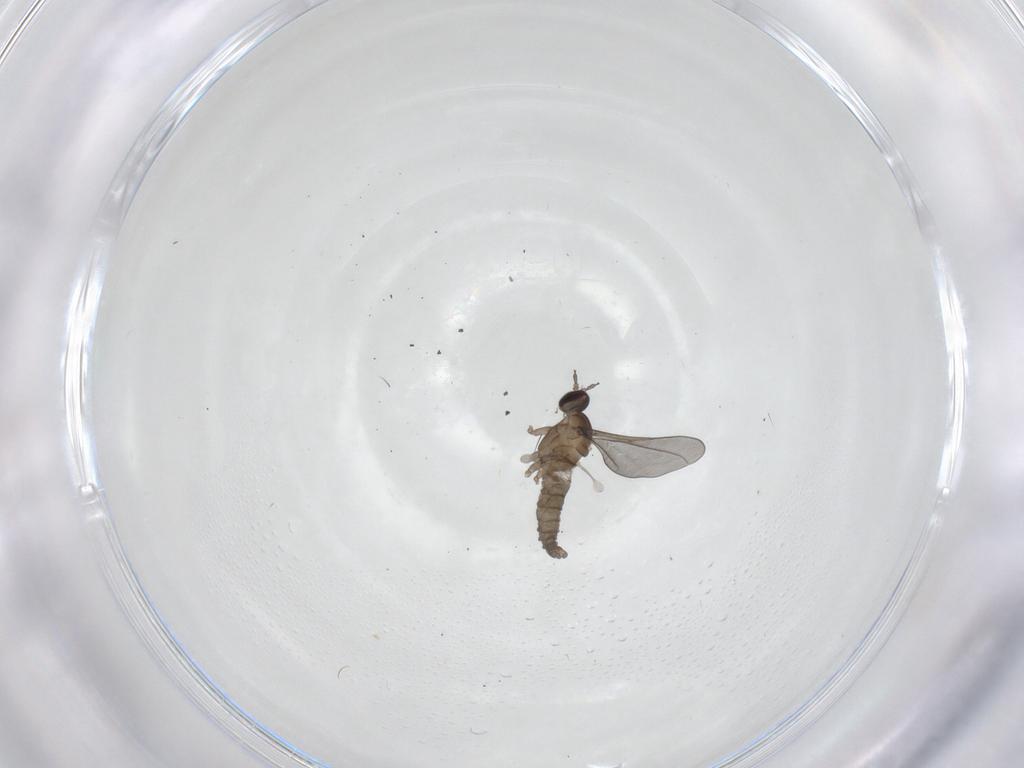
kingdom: Animalia
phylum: Arthropoda
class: Insecta
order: Diptera
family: Cecidomyiidae
